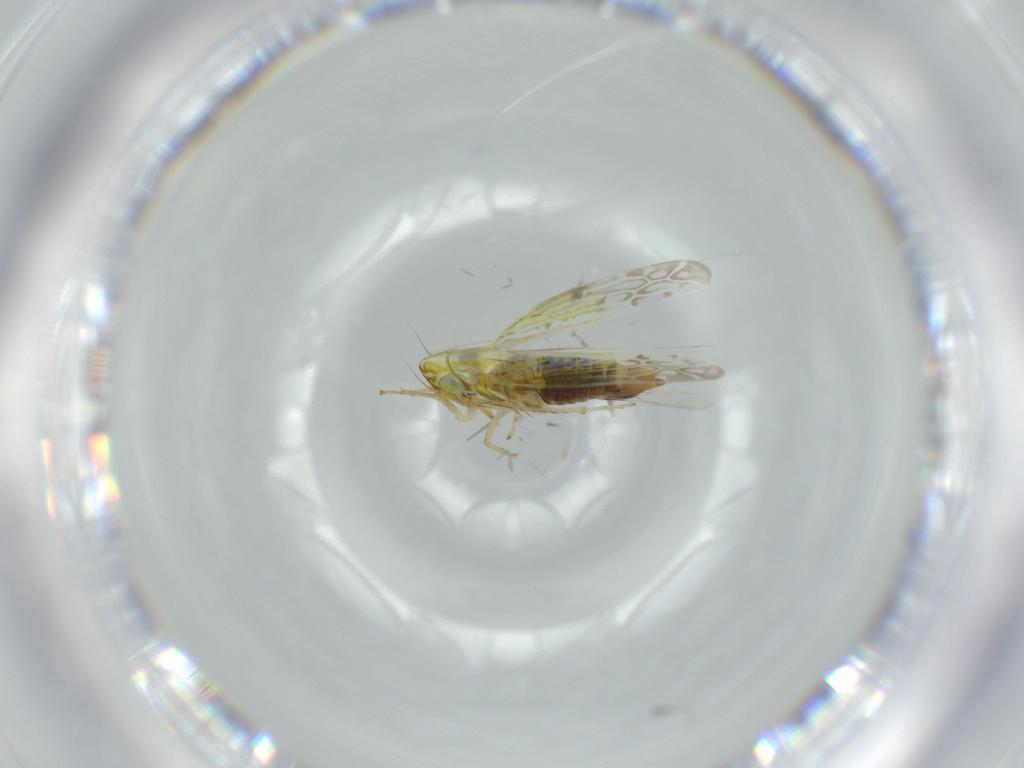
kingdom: Animalia
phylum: Arthropoda
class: Insecta
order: Hemiptera
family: Cicadellidae
